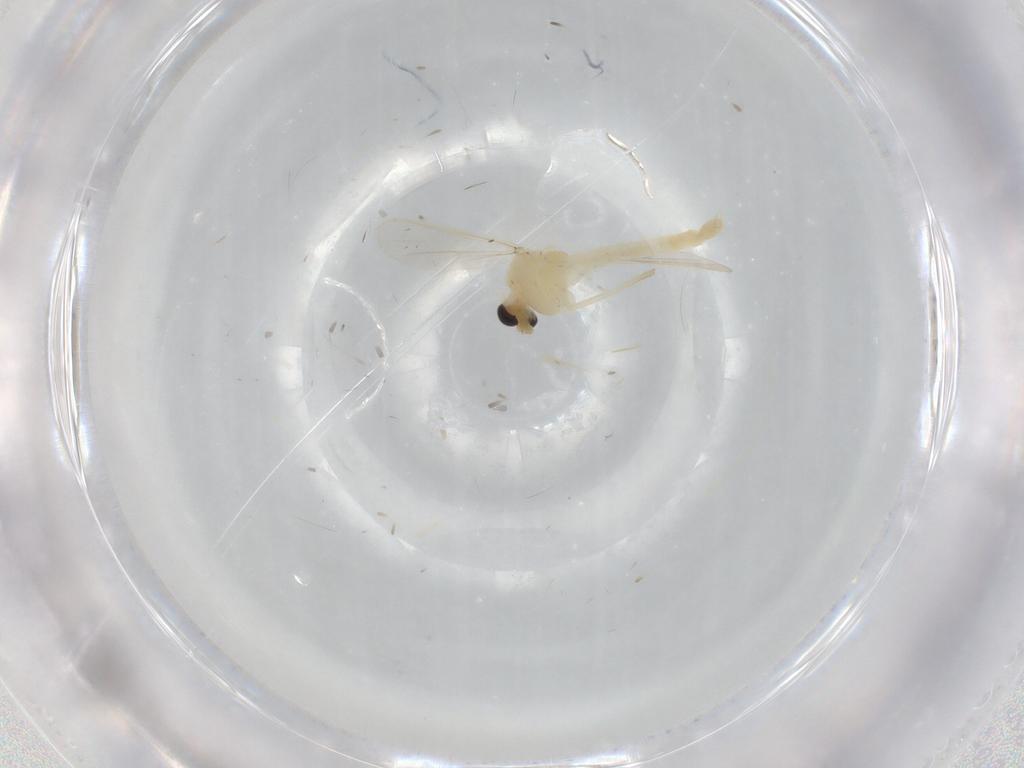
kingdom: Animalia
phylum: Arthropoda
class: Insecta
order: Diptera
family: Chironomidae
